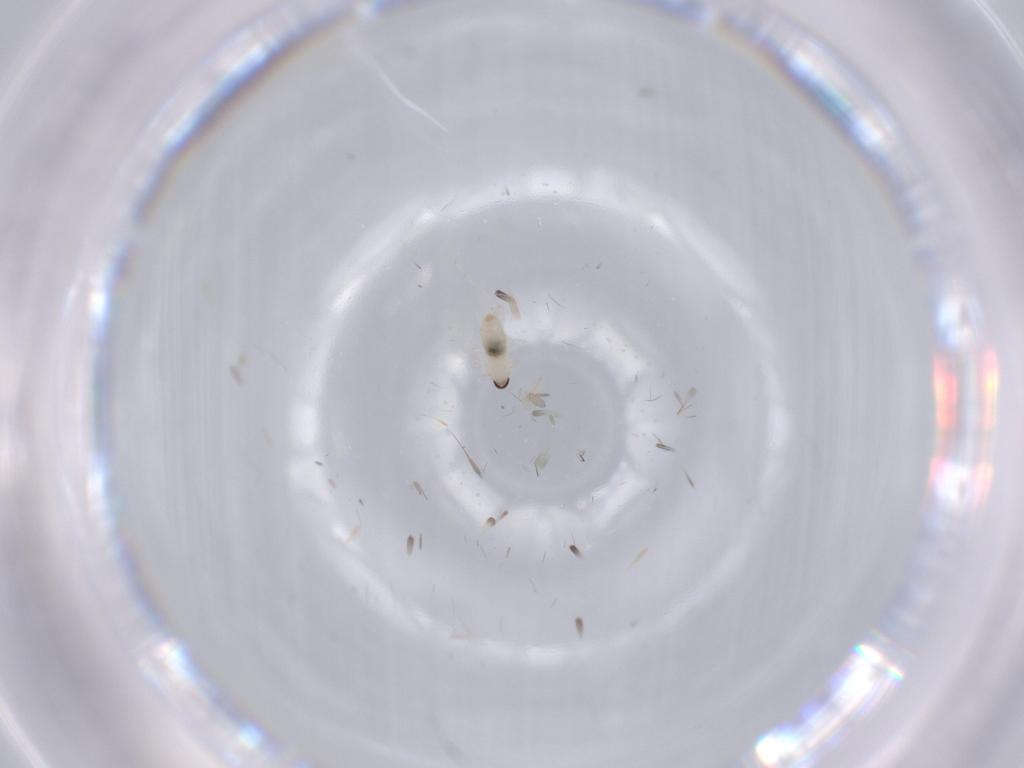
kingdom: Animalia
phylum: Arthropoda
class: Insecta
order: Diptera
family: Cecidomyiidae
